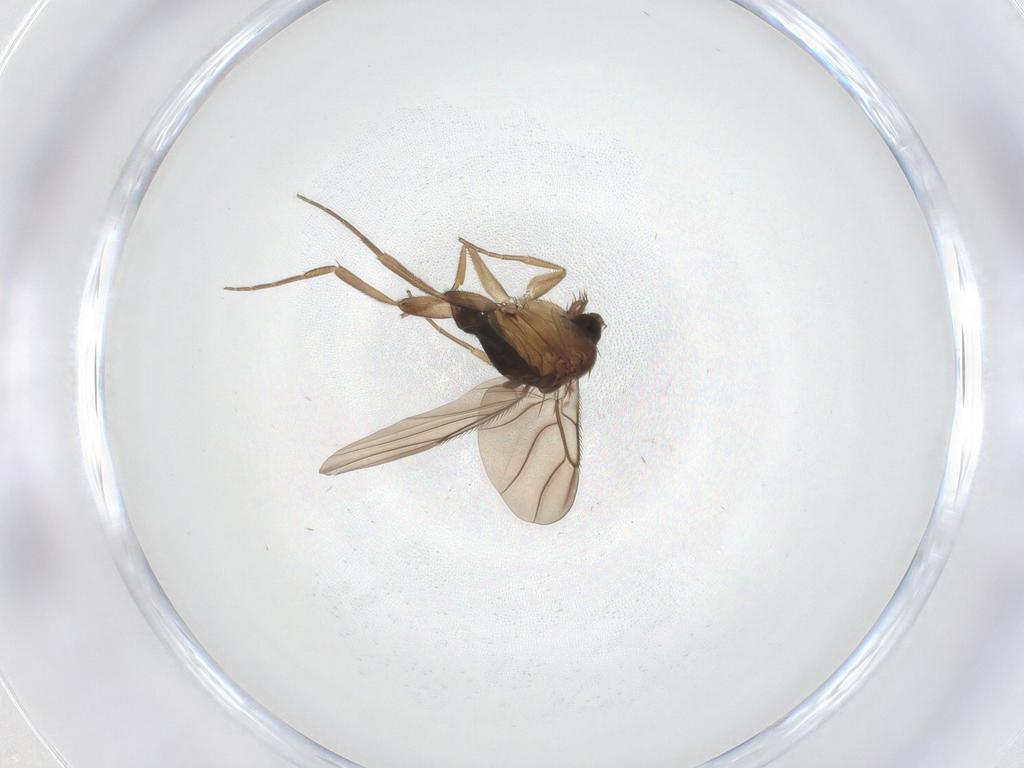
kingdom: Animalia
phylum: Arthropoda
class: Insecta
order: Diptera
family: Phoridae
